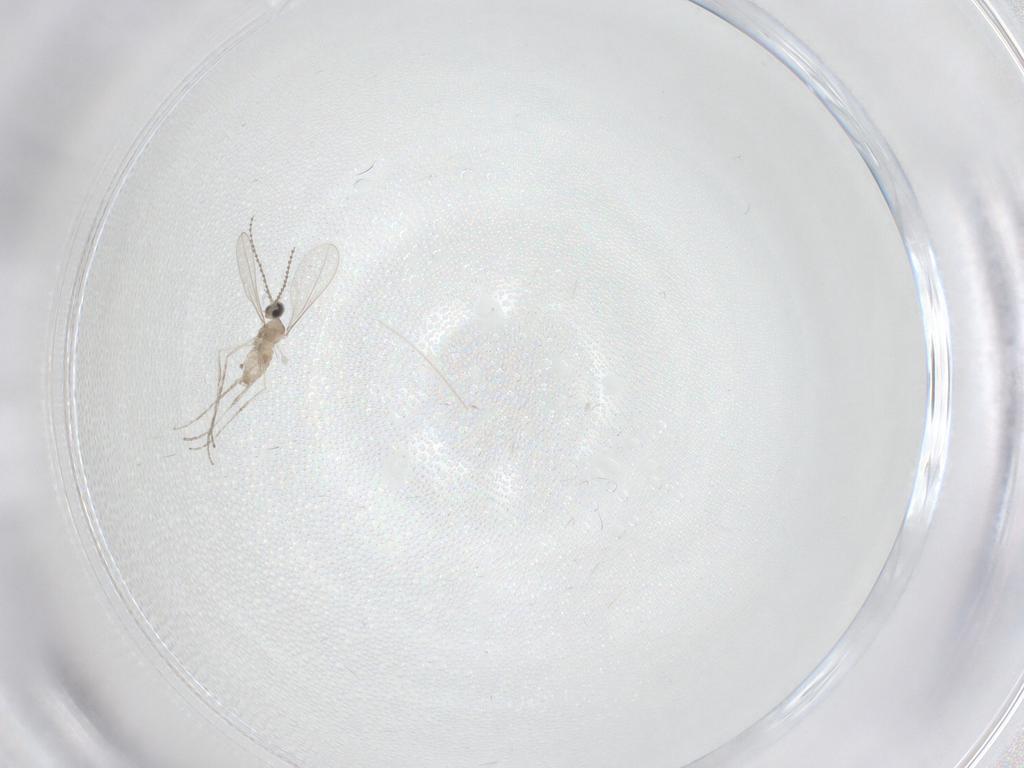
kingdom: Animalia
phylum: Arthropoda
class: Insecta
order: Diptera
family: Cecidomyiidae
